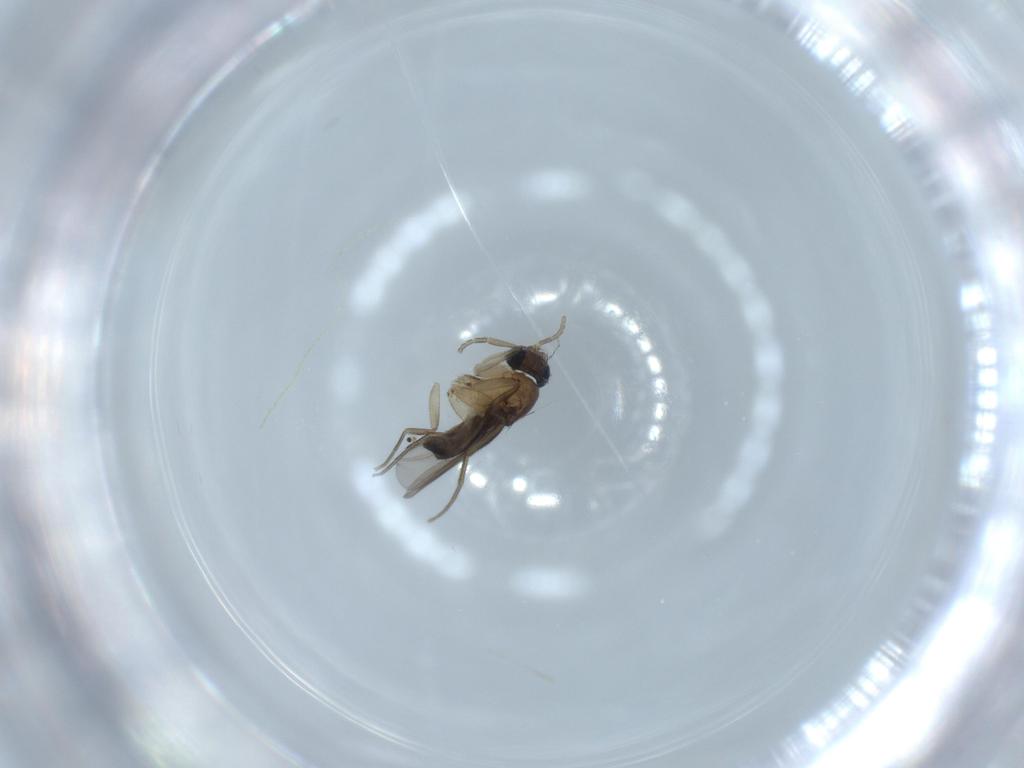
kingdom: Animalia
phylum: Arthropoda
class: Insecta
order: Diptera
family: Phoridae
